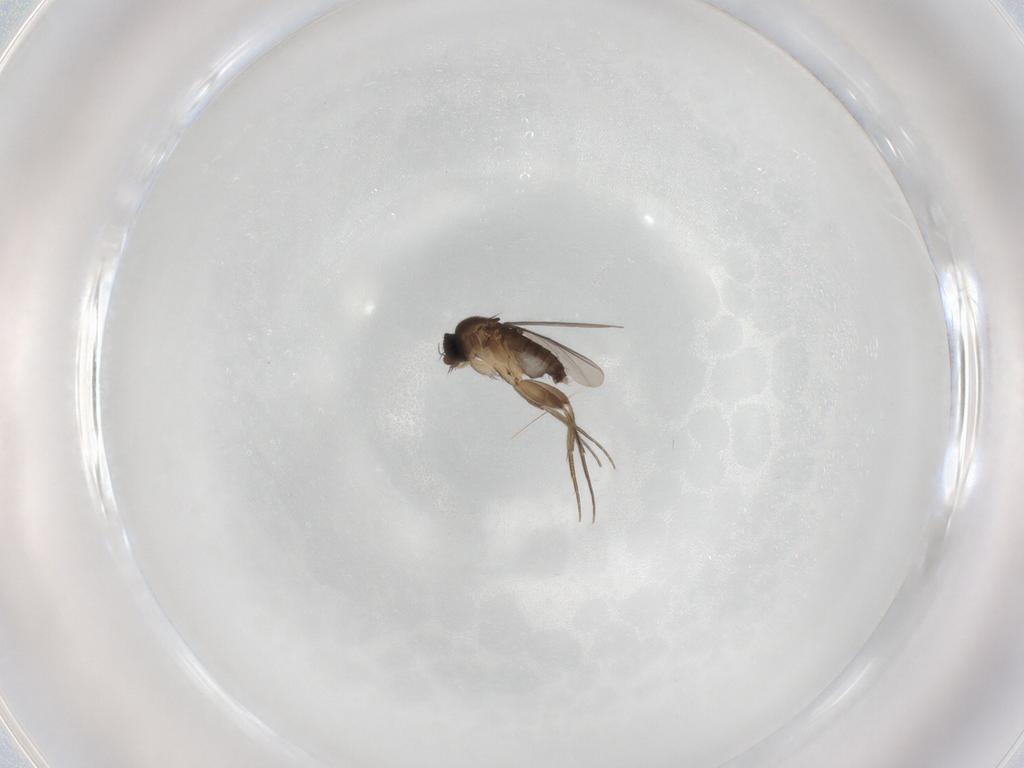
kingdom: Animalia
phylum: Arthropoda
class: Insecta
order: Diptera
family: Phoridae
